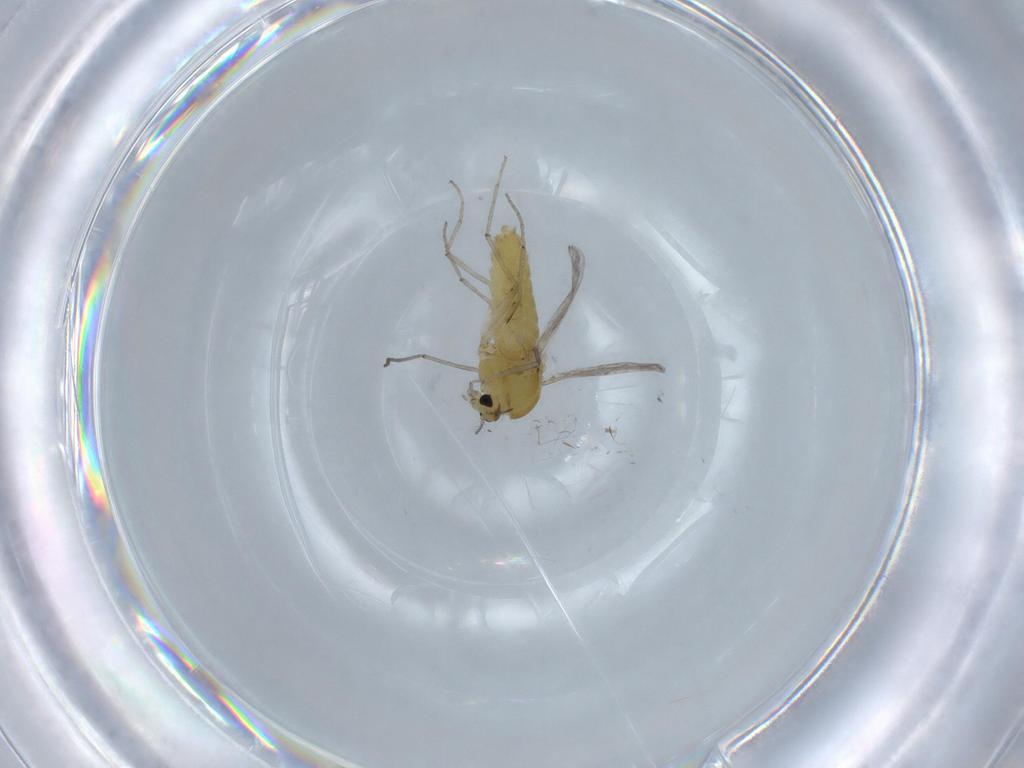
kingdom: Animalia
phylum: Arthropoda
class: Insecta
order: Diptera
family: Chironomidae
